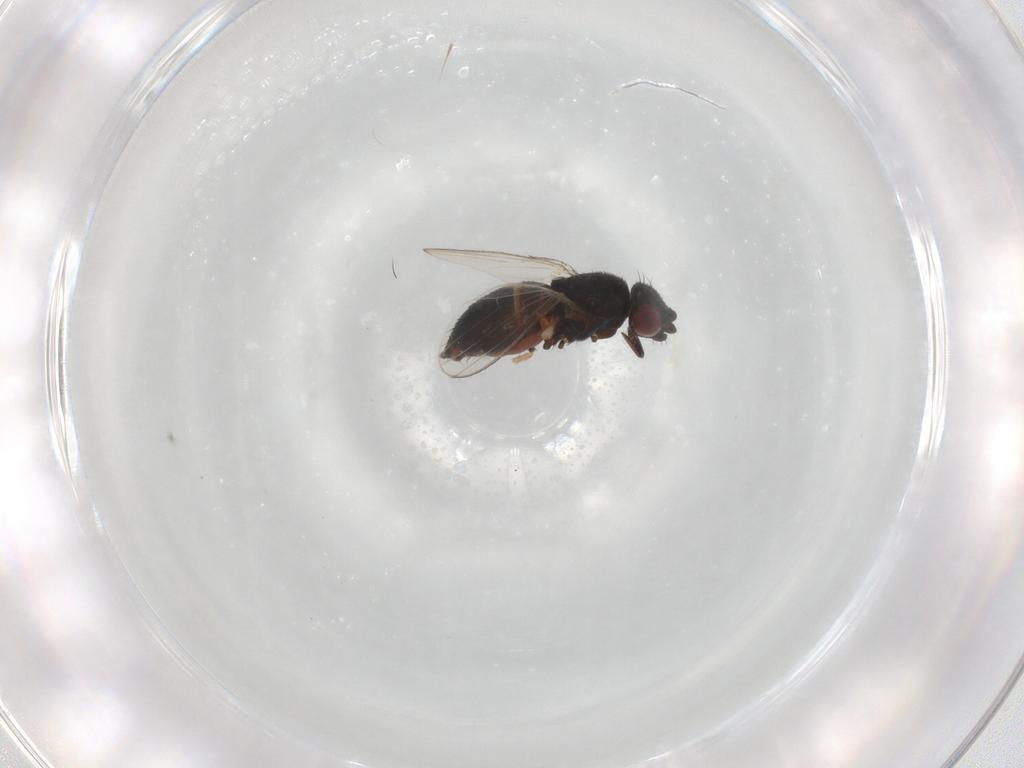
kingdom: Animalia
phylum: Arthropoda
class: Insecta
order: Diptera
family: Milichiidae
